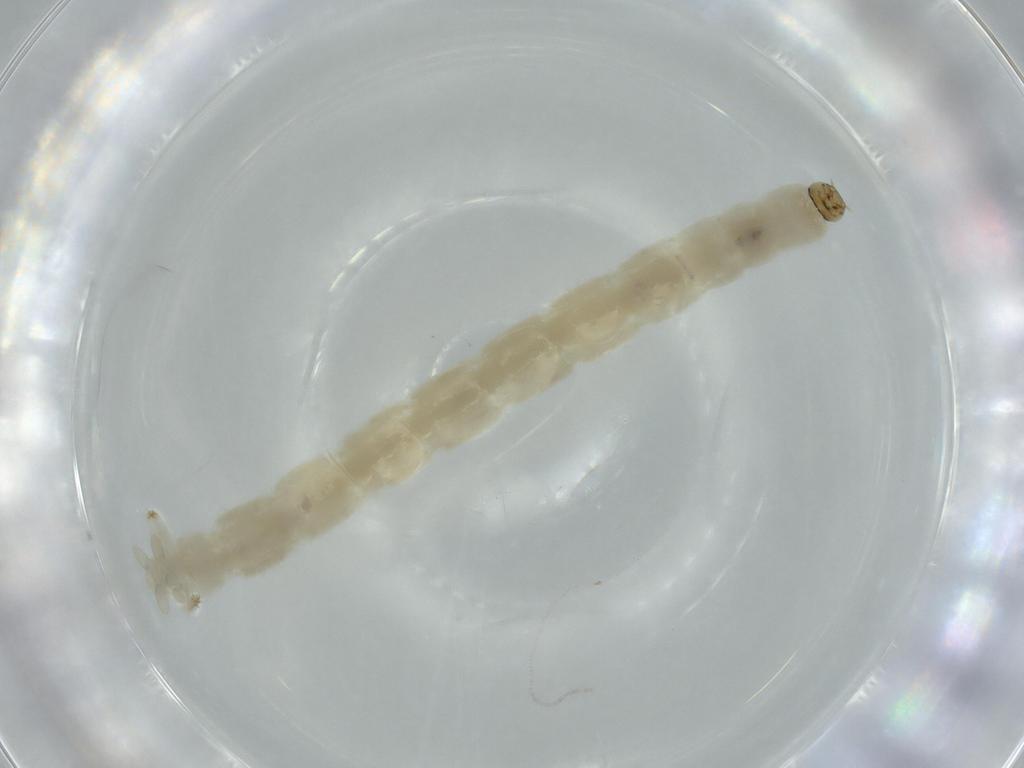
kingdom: Animalia
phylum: Arthropoda
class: Insecta
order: Diptera
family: Chironomidae
